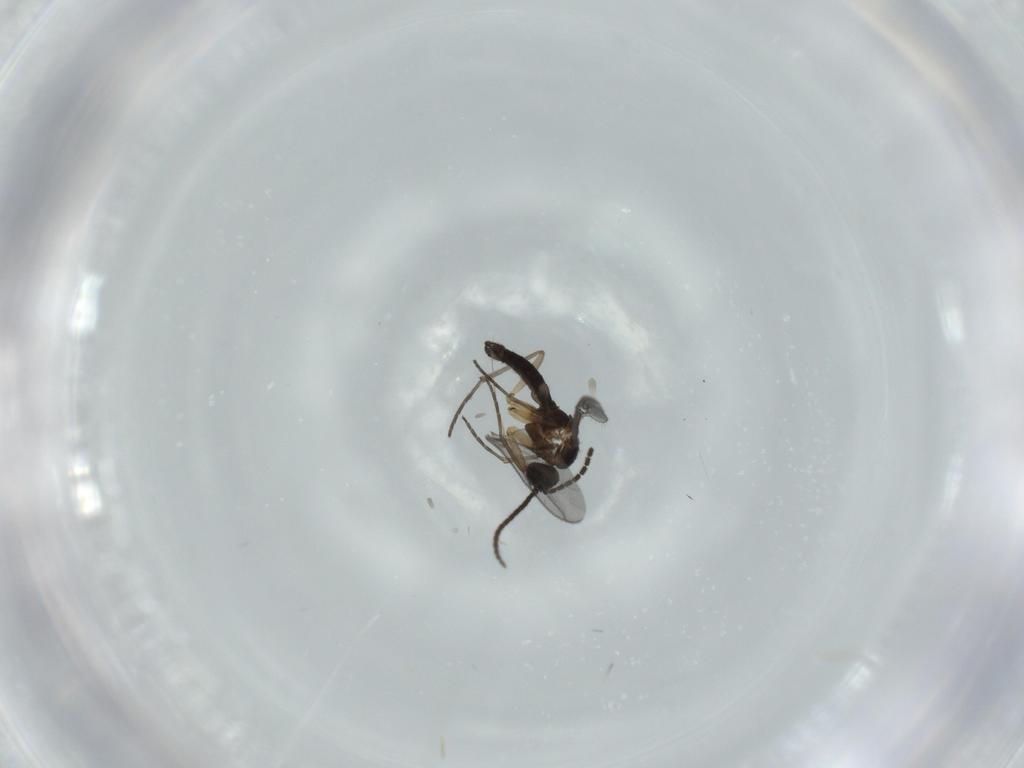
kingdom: Animalia
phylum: Arthropoda
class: Insecta
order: Diptera
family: Sciaridae
